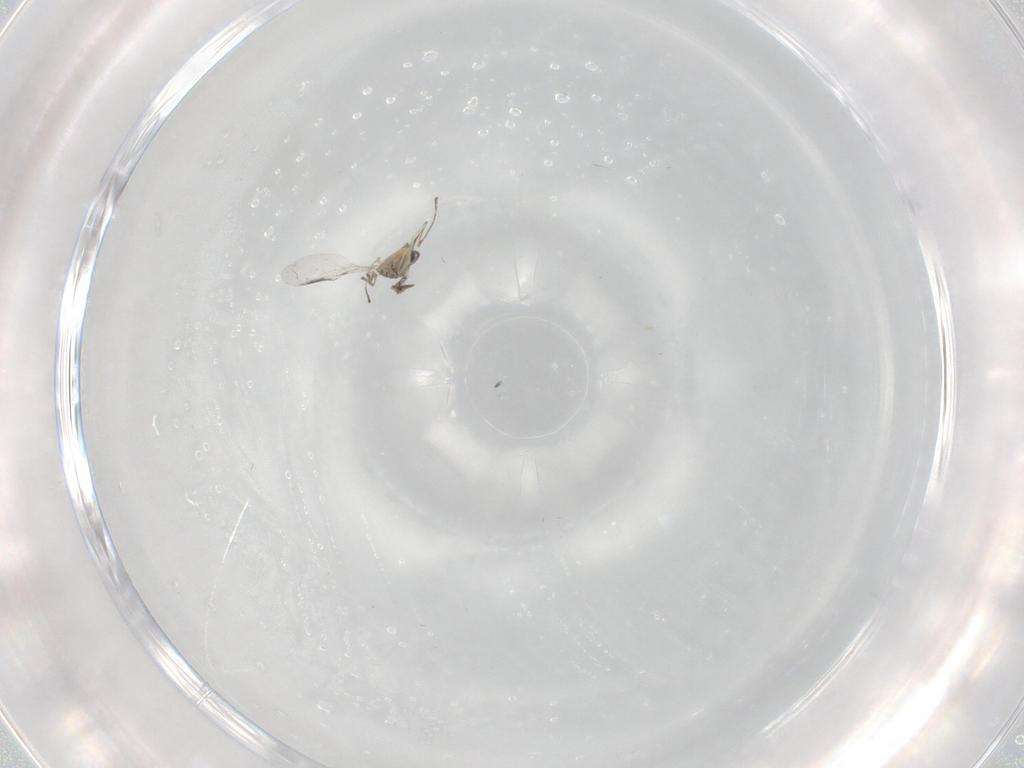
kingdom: Animalia
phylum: Arthropoda
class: Insecta
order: Diptera
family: Cecidomyiidae
